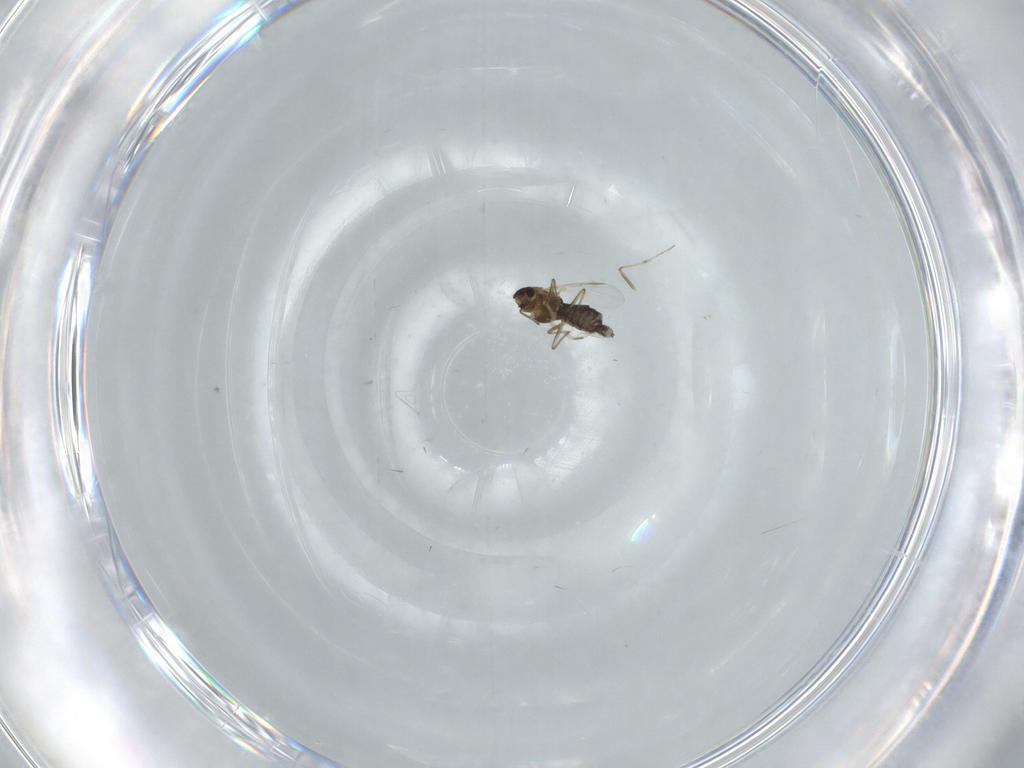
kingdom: Animalia
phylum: Arthropoda
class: Insecta
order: Diptera
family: Chironomidae
